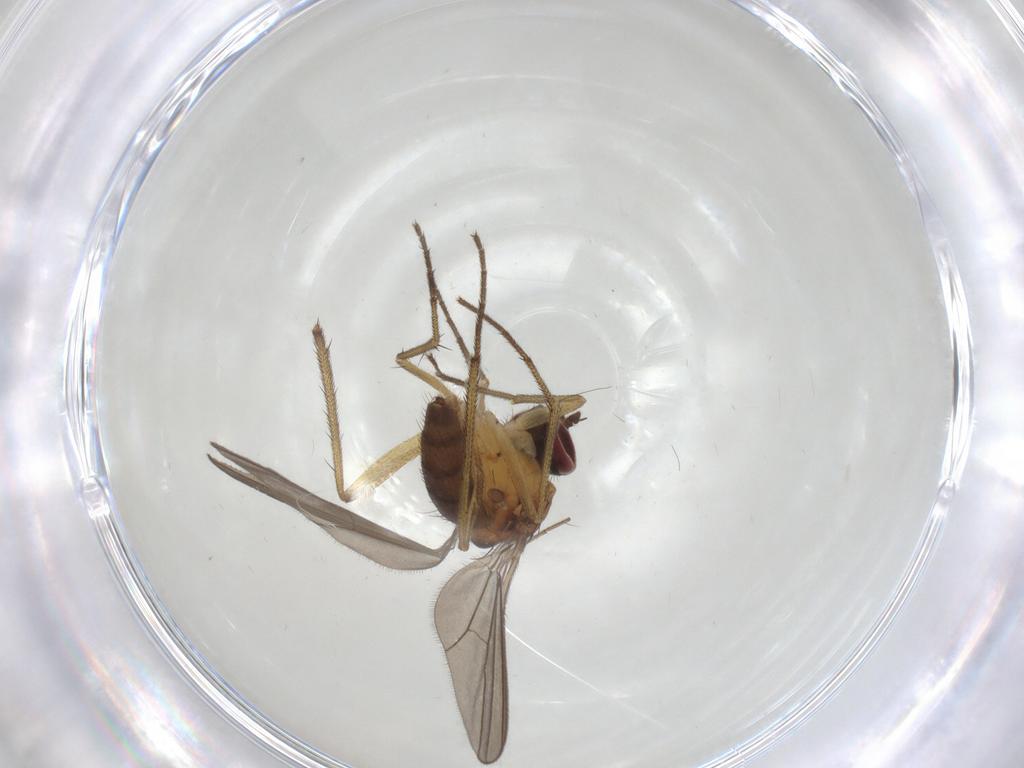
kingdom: Animalia
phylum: Arthropoda
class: Insecta
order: Diptera
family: Drosophilidae
